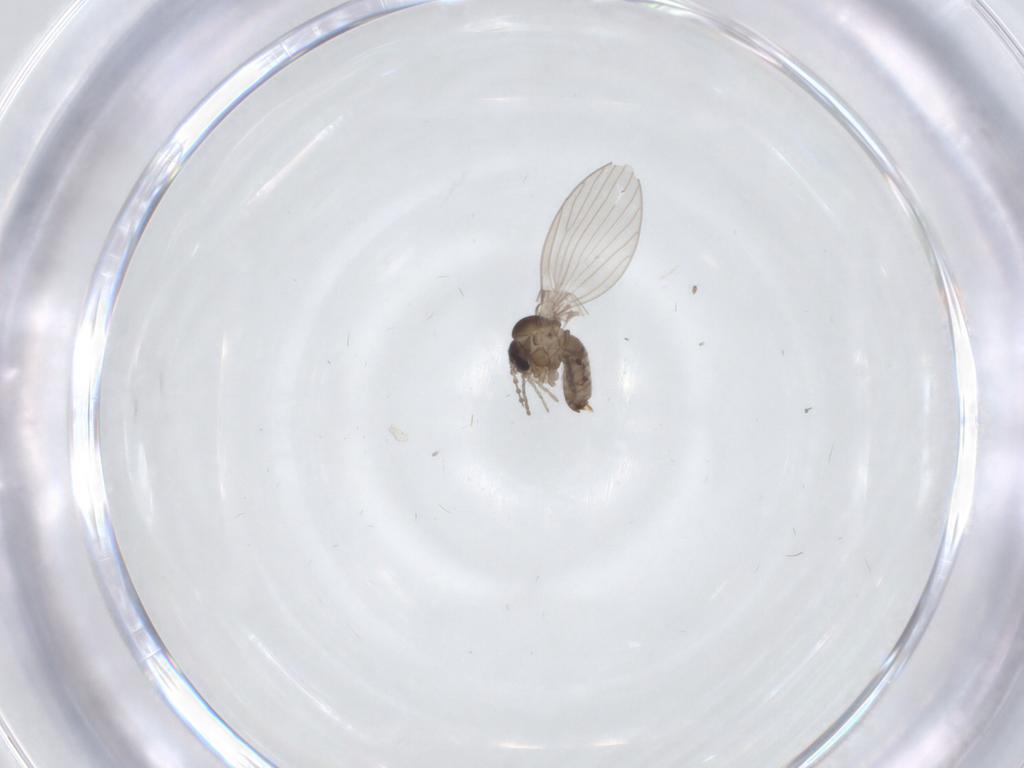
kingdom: Animalia
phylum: Arthropoda
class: Insecta
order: Diptera
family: Psychodidae
